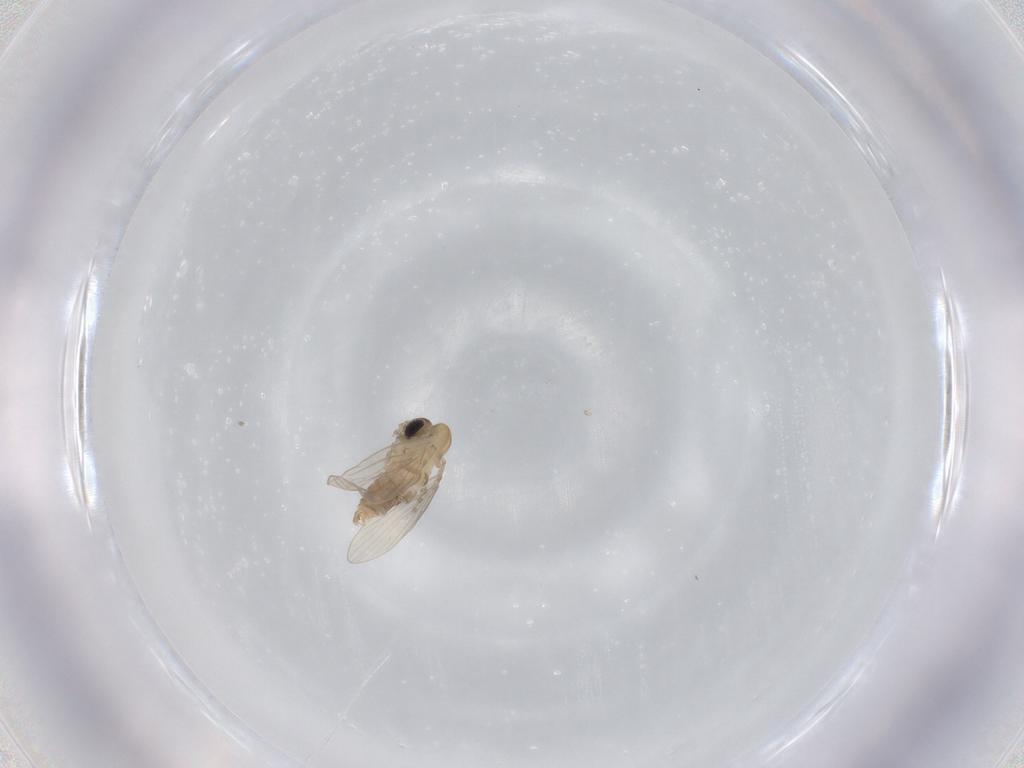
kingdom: Animalia
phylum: Arthropoda
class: Insecta
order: Diptera
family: Psychodidae
